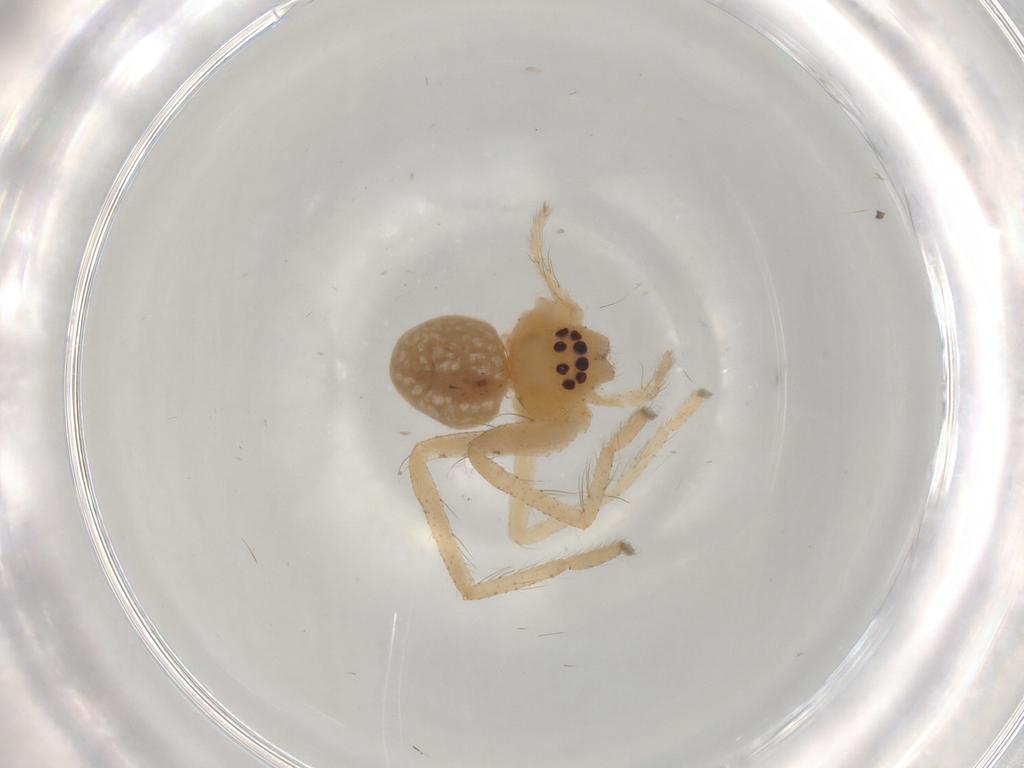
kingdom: Animalia
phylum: Arthropoda
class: Arachnida
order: Araneae
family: Sparassidae
